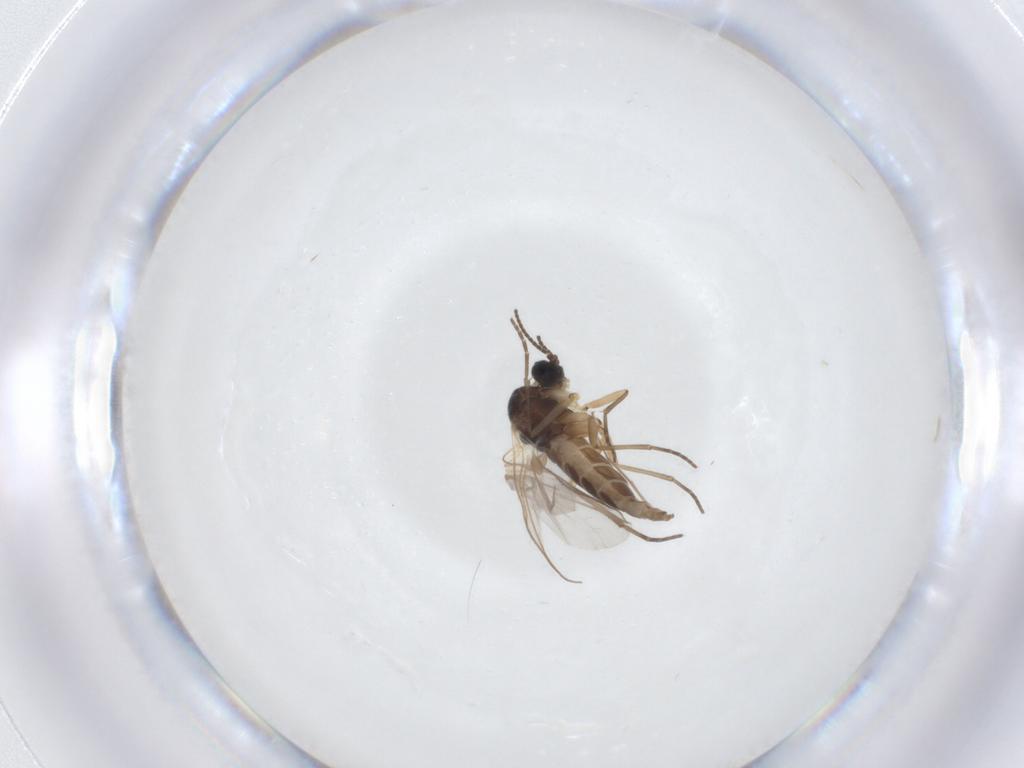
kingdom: Animalia
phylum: Arthropoda
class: Insecta
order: Diptera
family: Sciaridae
